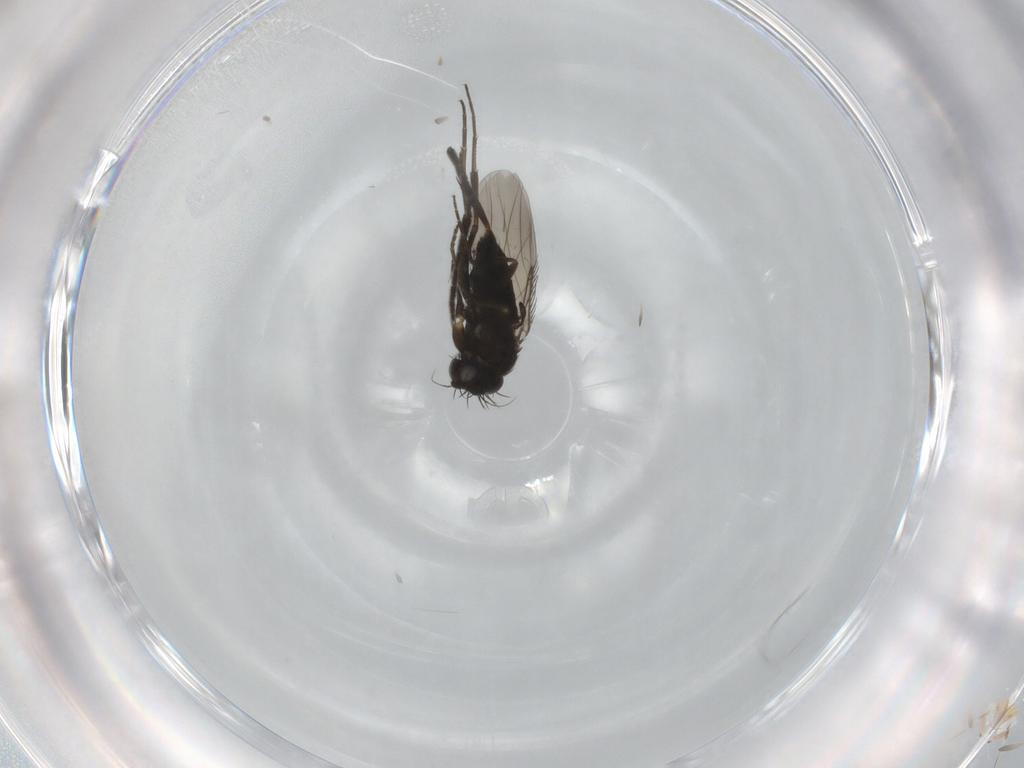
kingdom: Animalia
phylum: Arthropoda
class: Insecta
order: Diptera
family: Phoridae
